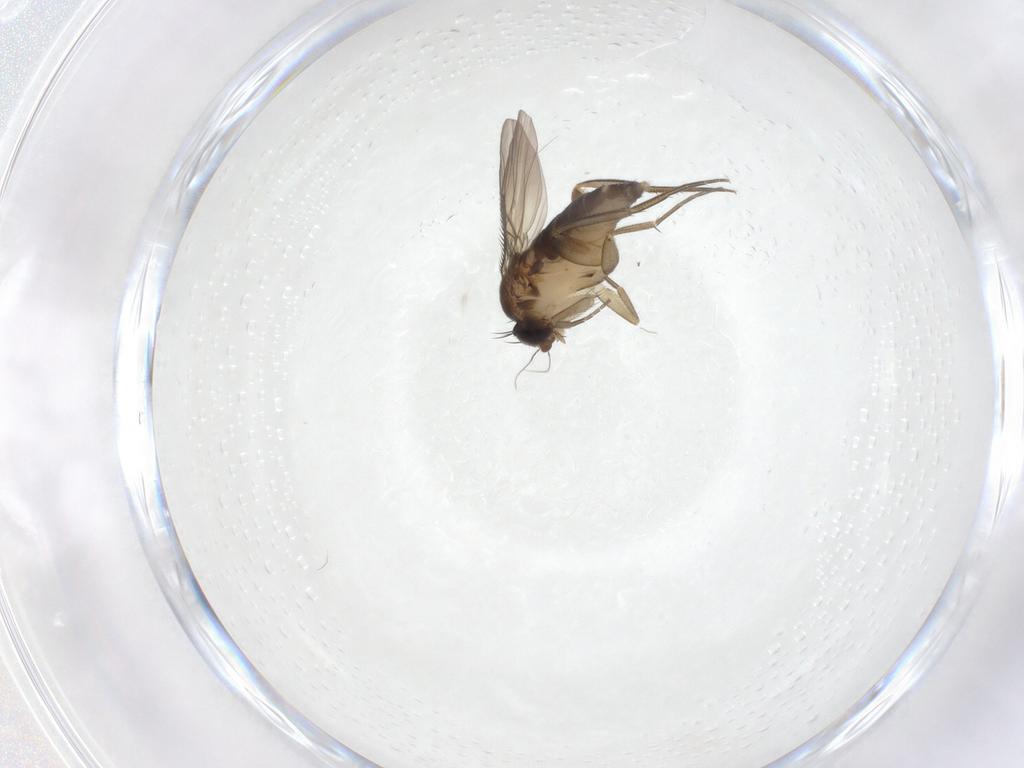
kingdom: Animalia
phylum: Arthropoda
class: Insecta
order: Diptera
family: Phoridae
